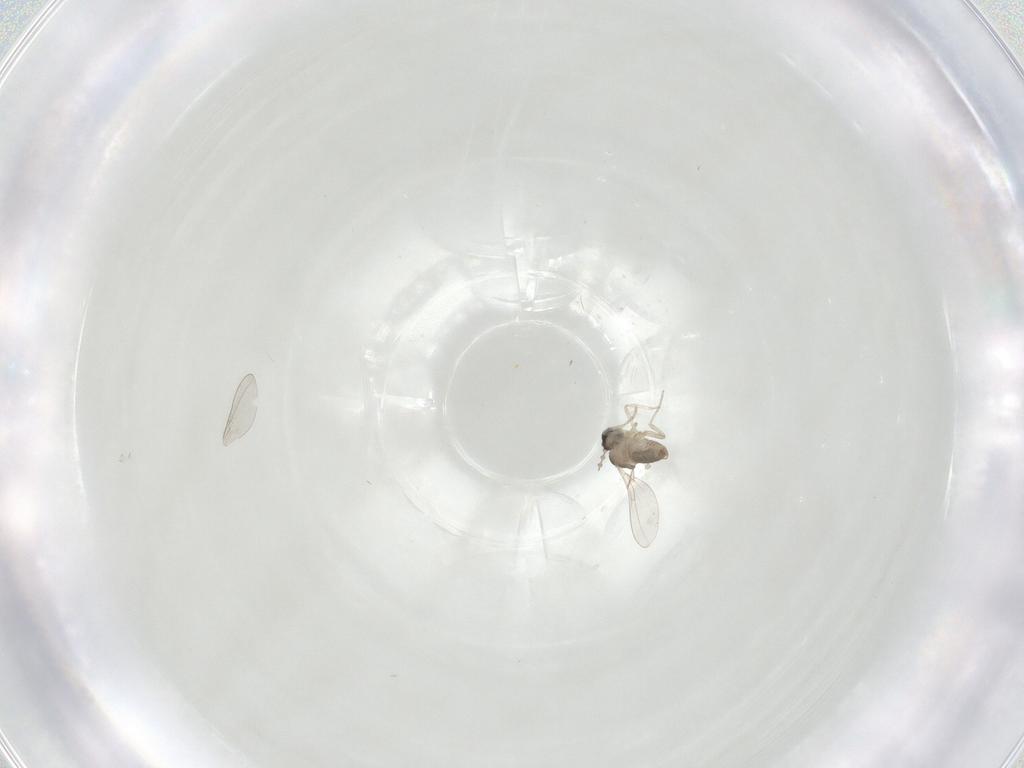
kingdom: Animalia
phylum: Arthropoda
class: Insecta
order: Diptera
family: Cecidomyiidae
